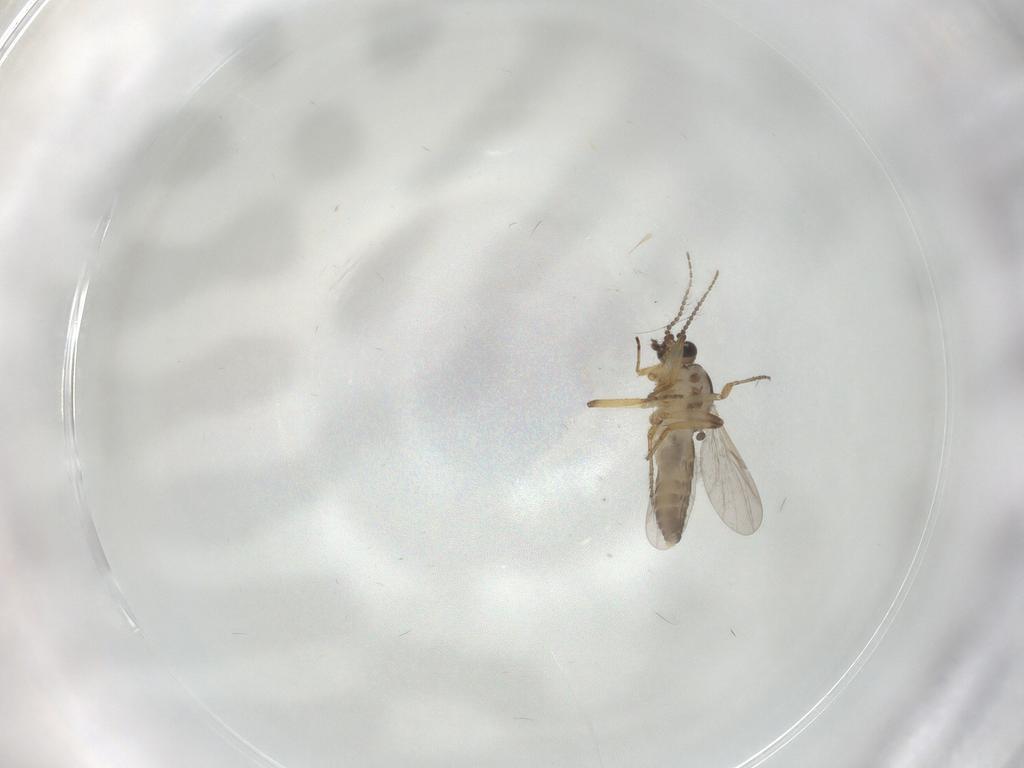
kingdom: Animalia
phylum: Arthropoda
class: Insecta
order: Diptera
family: Ceratopogonidae
